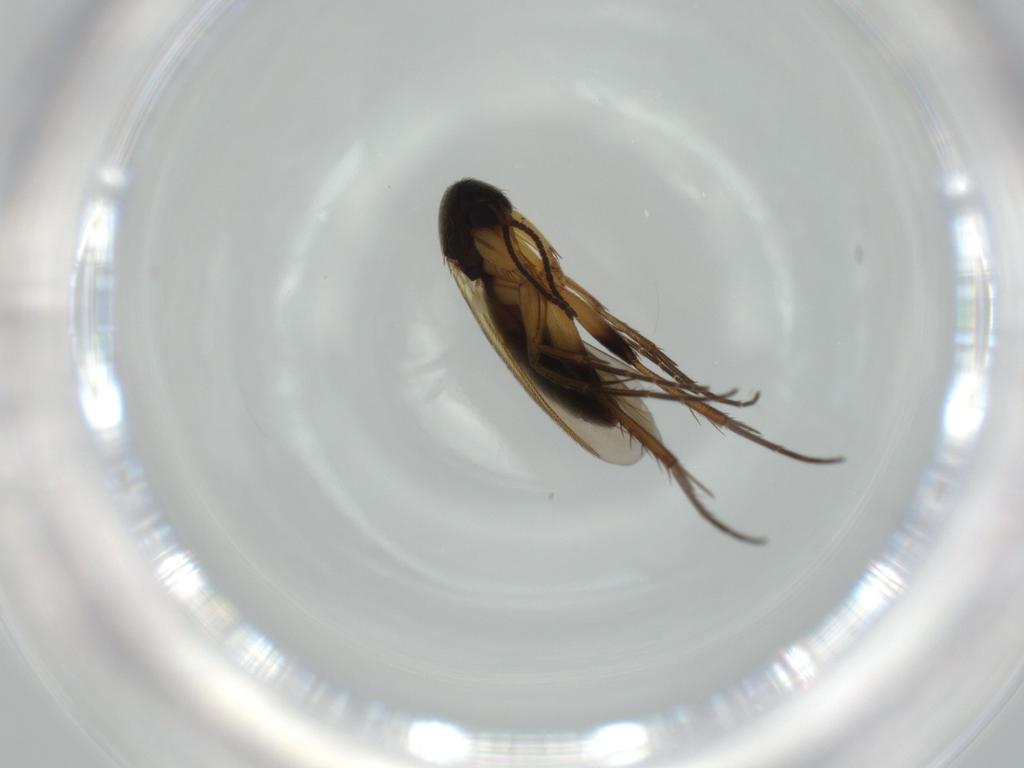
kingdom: Animalia
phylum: Arthropoda
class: Insecta
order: Diptera
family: Mycetophilidae
